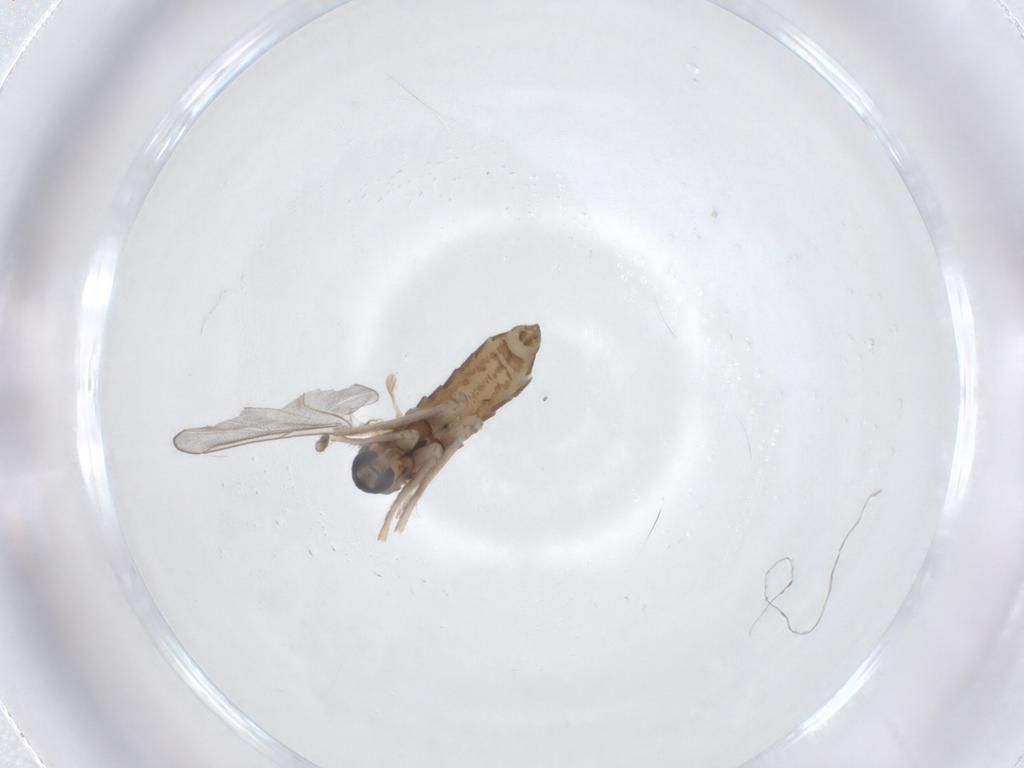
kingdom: Animalia
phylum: Arthropoda
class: Insecta
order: Diptera
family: Cecidomyiidae
